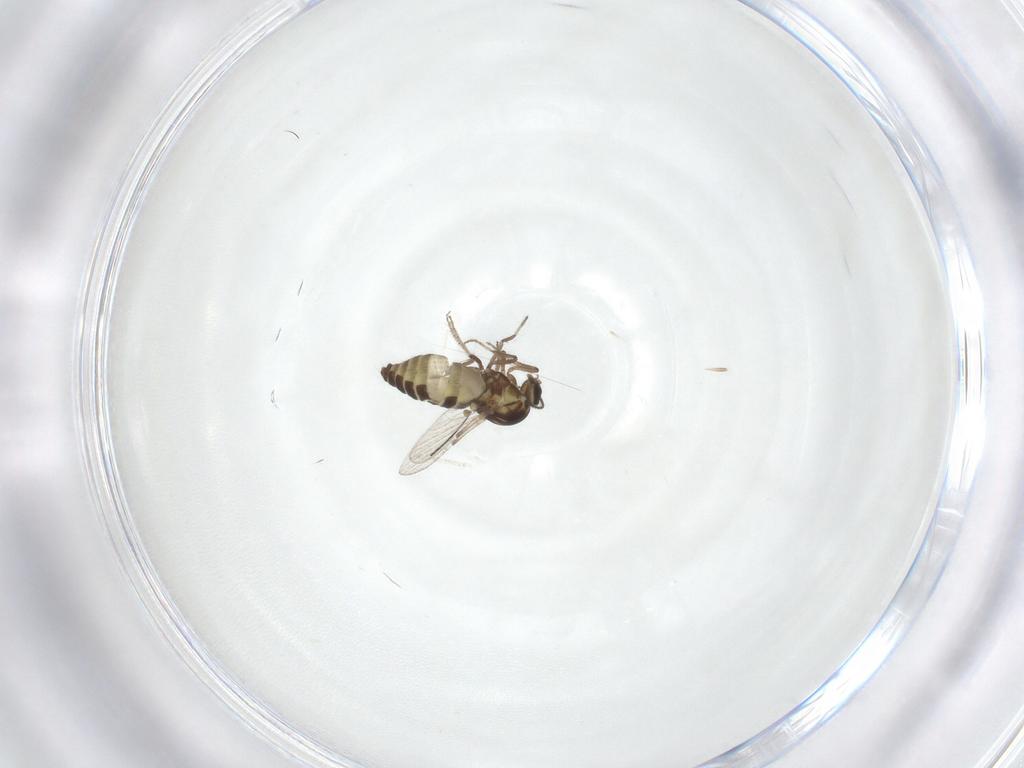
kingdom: Animalia
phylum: Arthropoda
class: Insecta
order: Diptera
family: Ceratopogonidae
